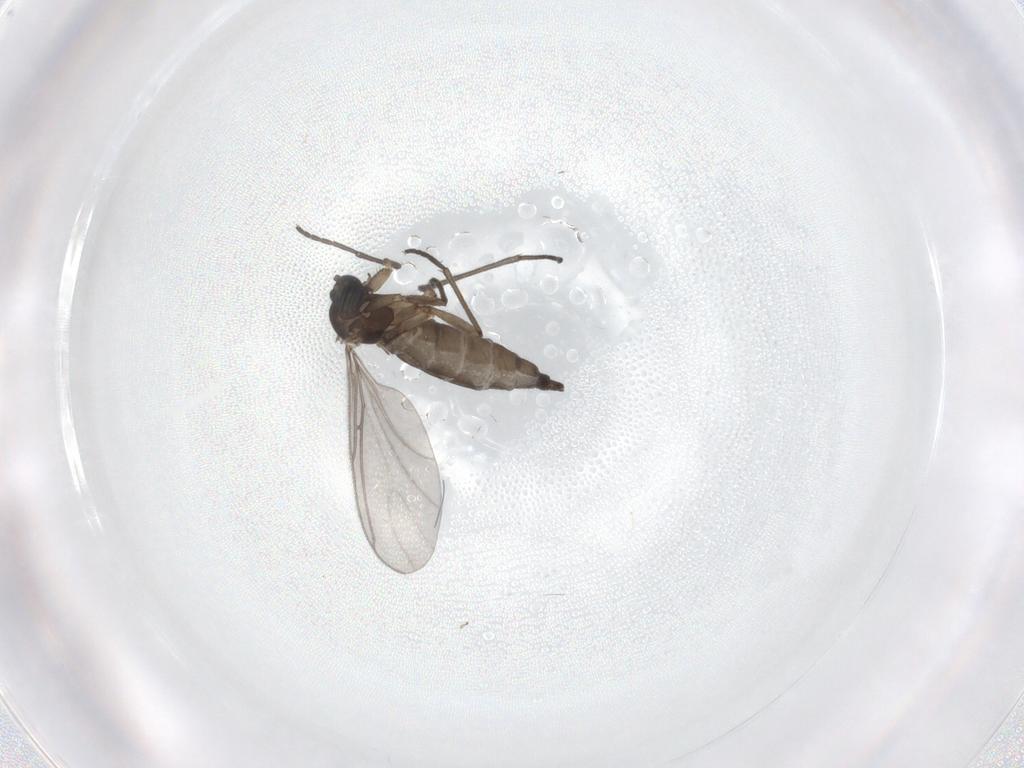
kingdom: Animalia
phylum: Arthropoda
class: Insecta
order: Diptera
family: Sciaridae
